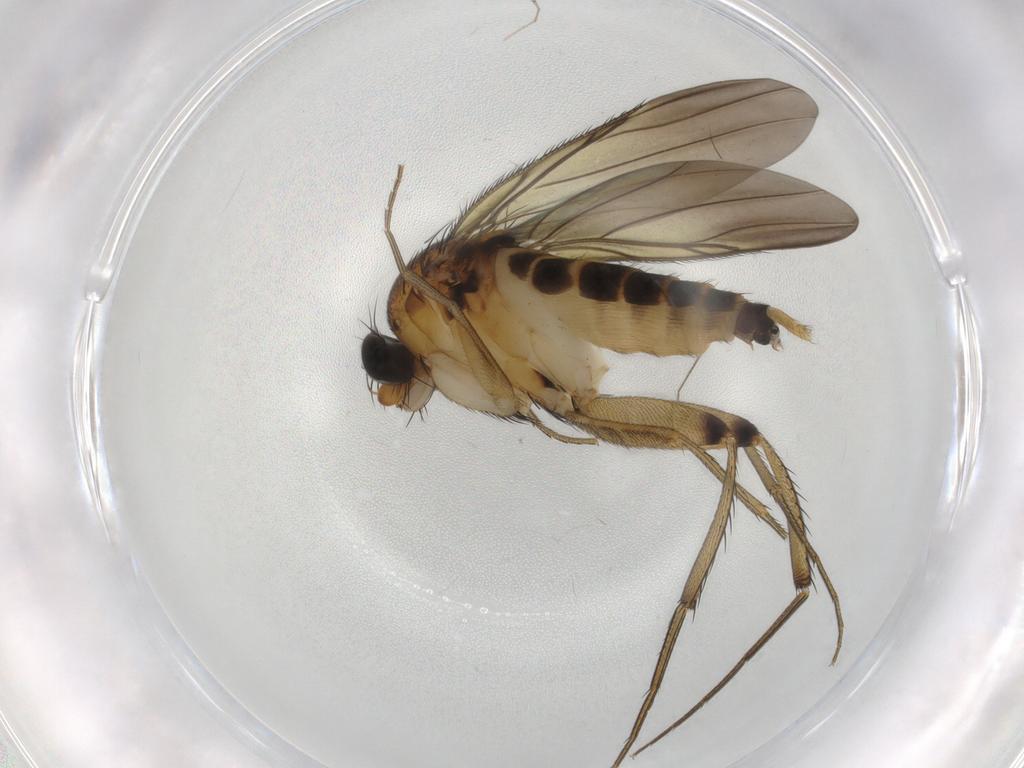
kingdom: Animalia
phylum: Arthropoda
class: Insecta
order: Diptera
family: Phoridae
